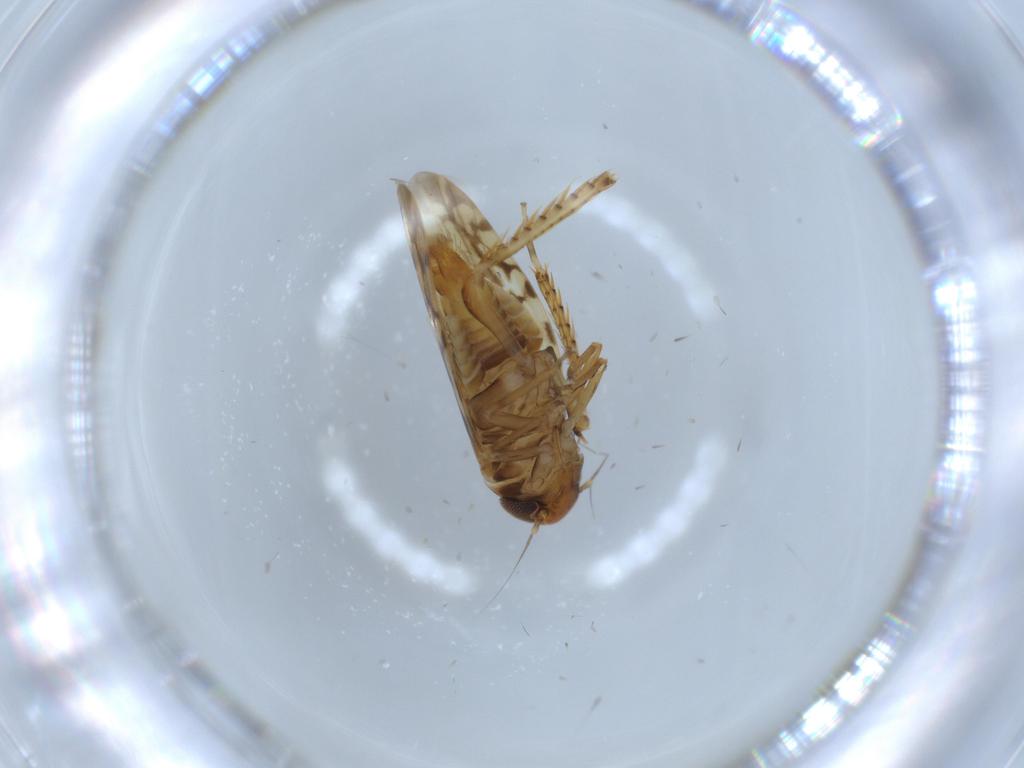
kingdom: Animalia
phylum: Arthropoda
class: Insecta
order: Hemiptera
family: Cicadellidae
